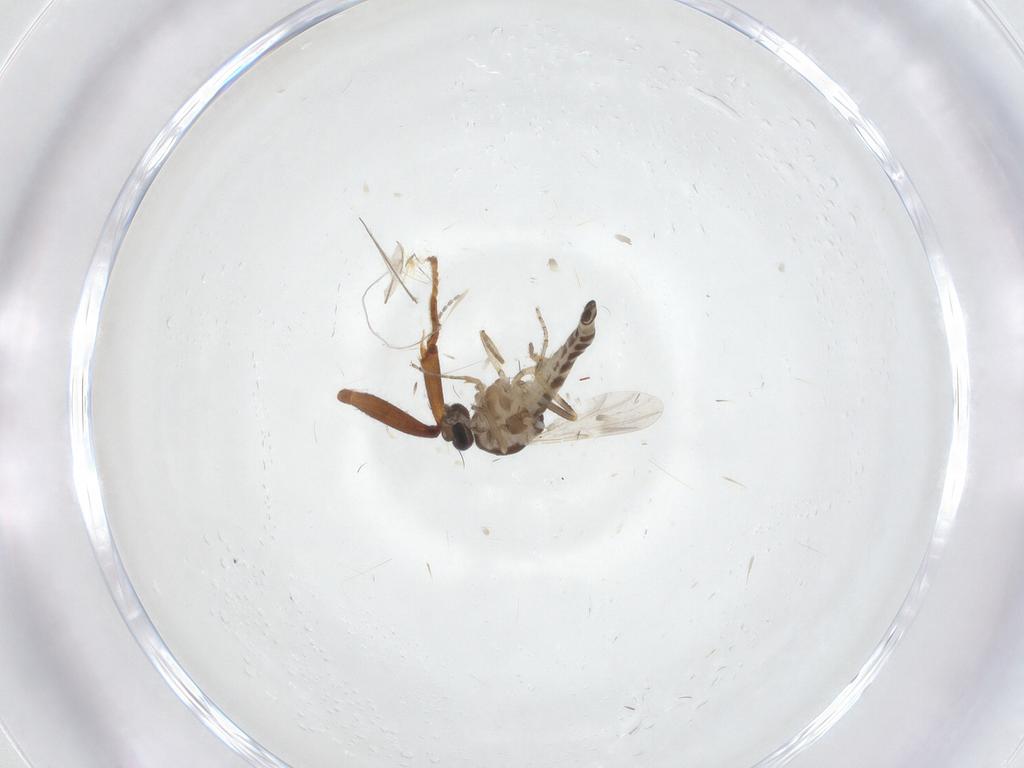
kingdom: Animalia
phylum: Arthropoda
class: Insecta
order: Diptera
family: Ceratopogonidae
